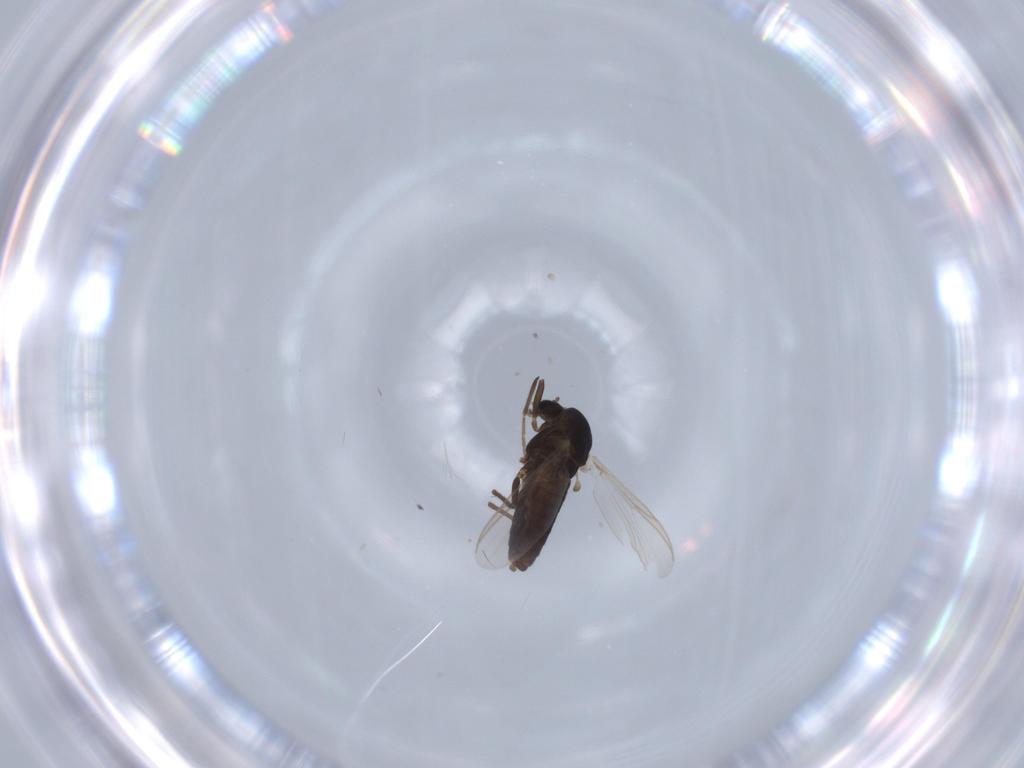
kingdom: Animalia
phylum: Arthropoda
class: Insecta
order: Diptera
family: Chironomidae
